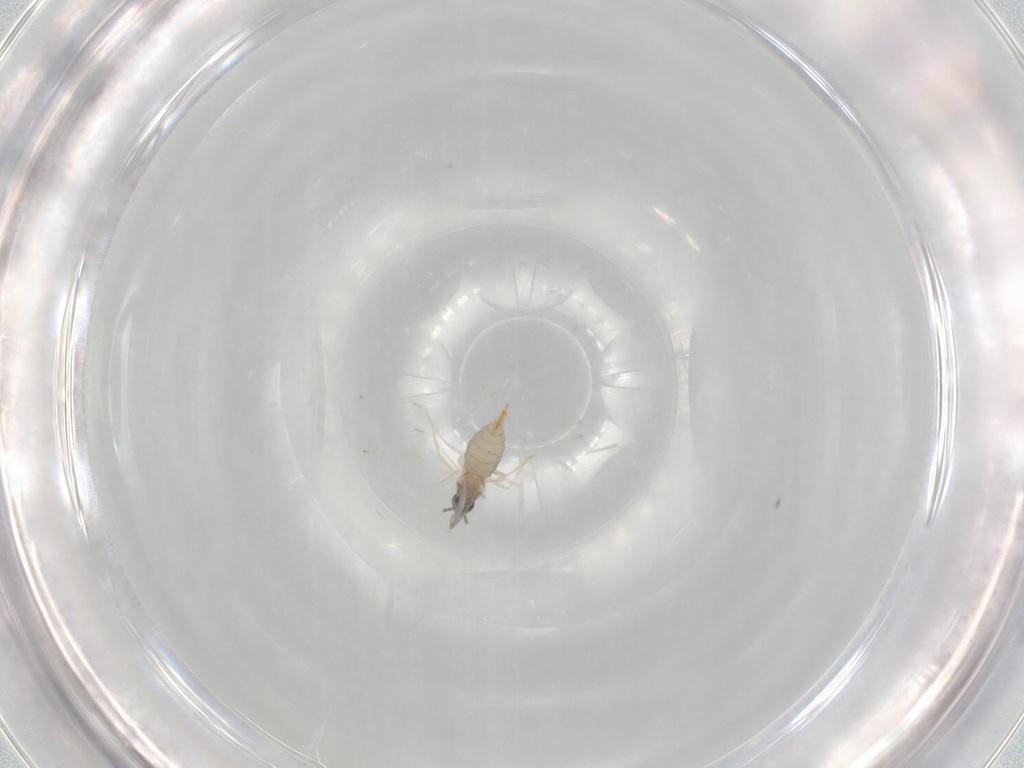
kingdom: Animalia
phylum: Arthropoda
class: Insecta
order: Diptera
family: Cecidomyiidae
